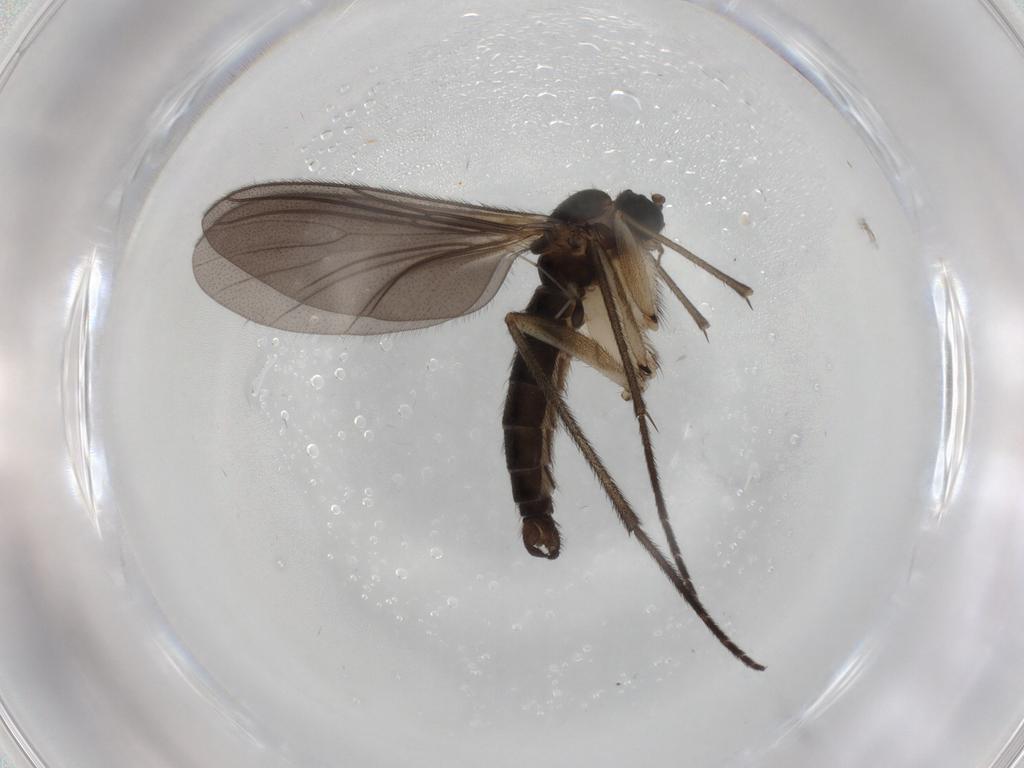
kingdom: Animalia
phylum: Arthropoda
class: Insecta
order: Diptera
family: Sciaridae
